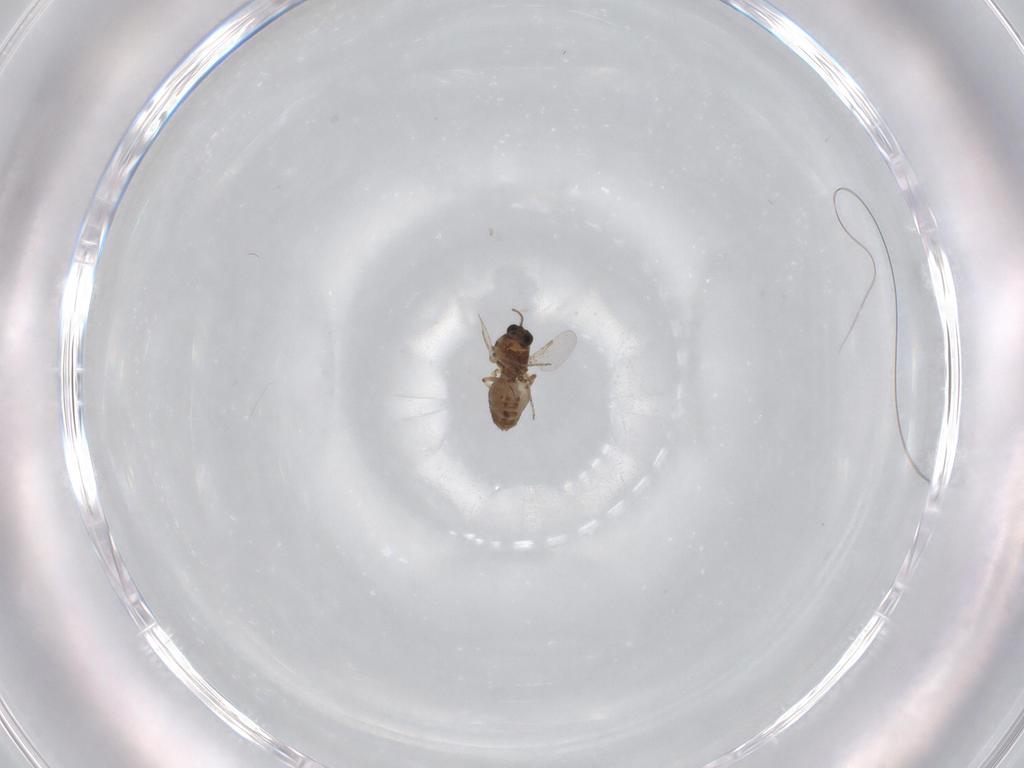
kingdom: Animalia
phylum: Arthropoda
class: Insecta
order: Diptera
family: Ceratopogonidae
